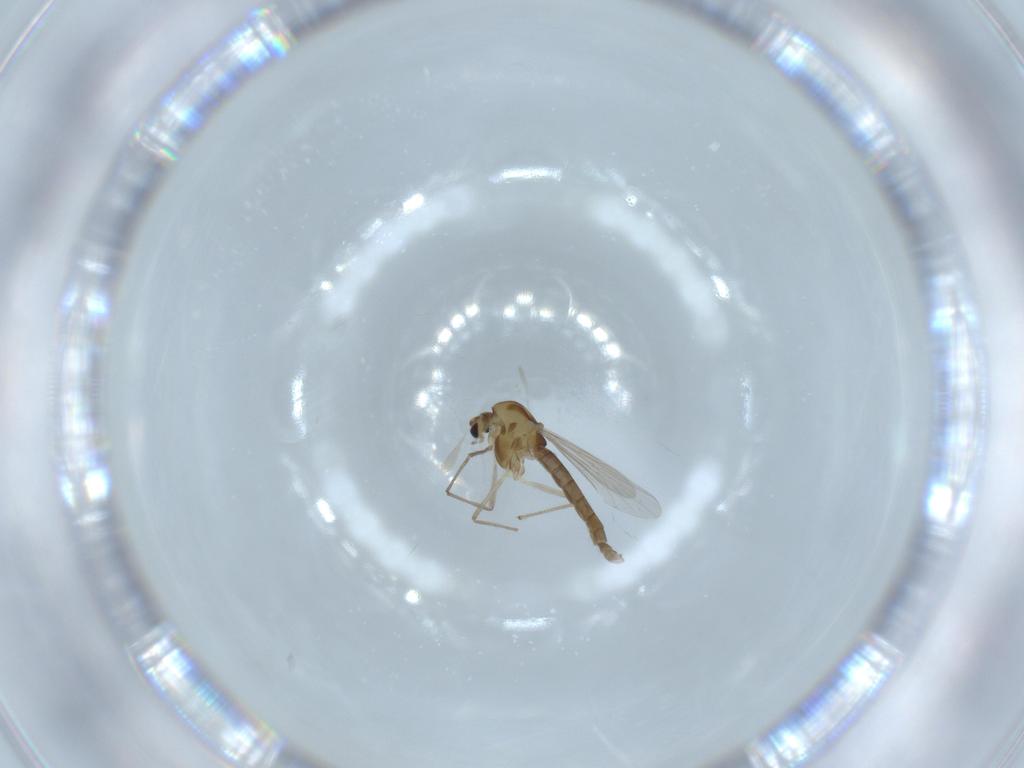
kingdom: Animalia
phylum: Arthropoda
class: Insecta
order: Diptera
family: Chironomidae
